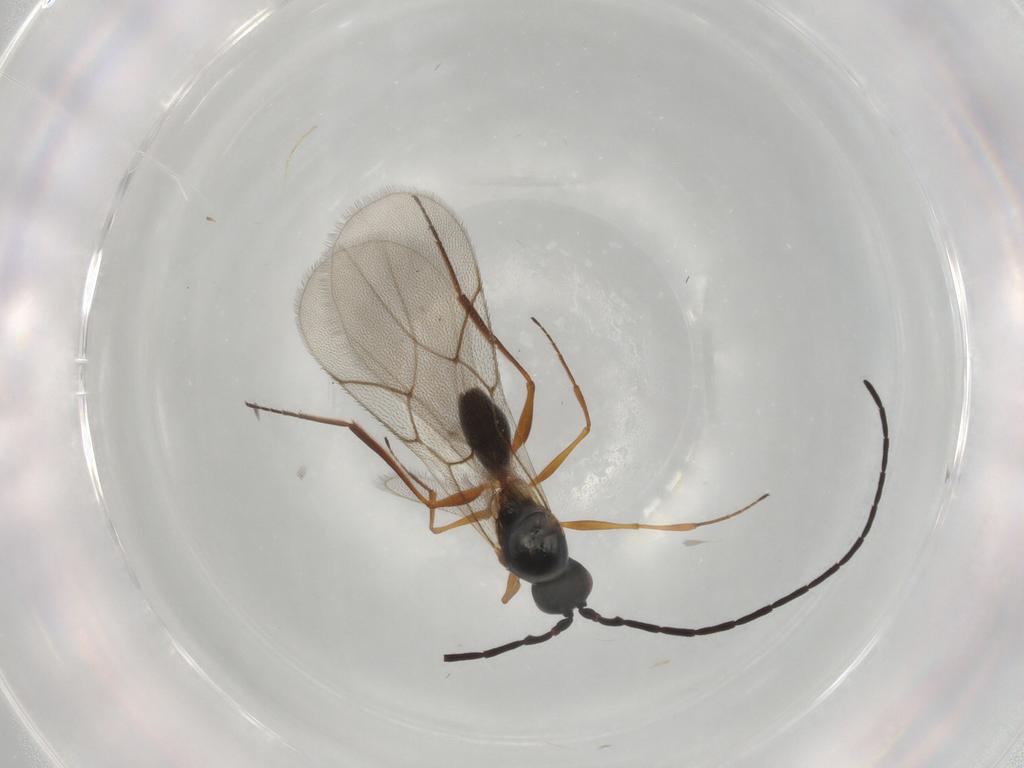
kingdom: Animalia
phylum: Arthropoda
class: Insecta
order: Hymenoptera
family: Figitidae
